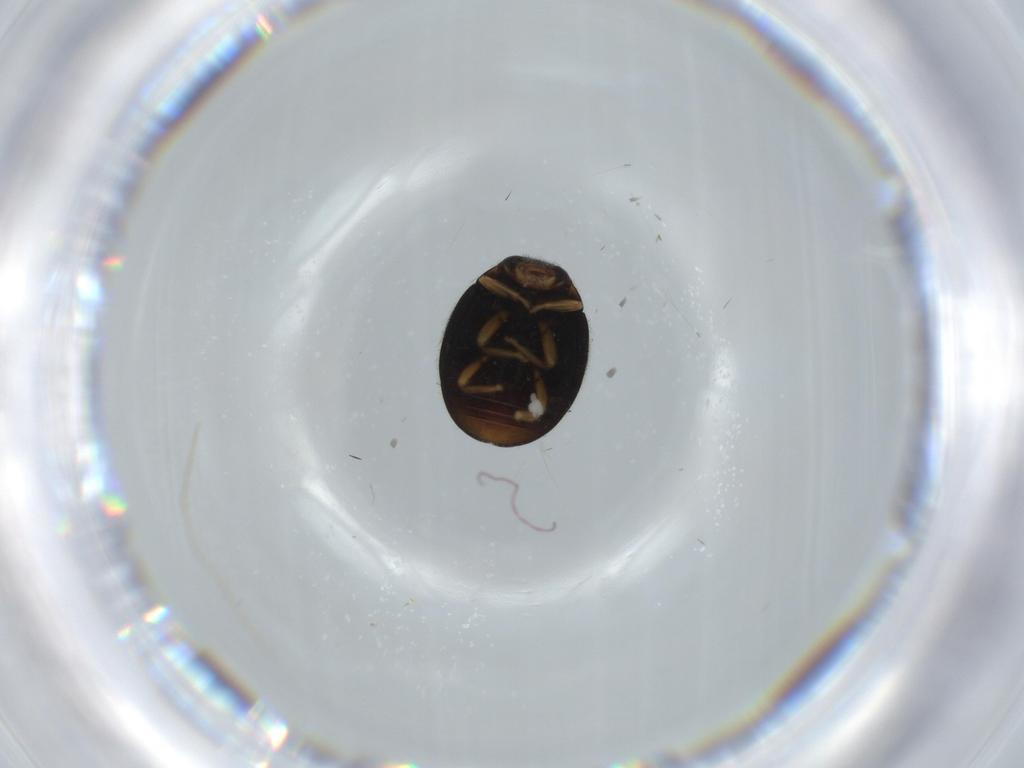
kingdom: Animalia
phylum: Arthropoda
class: Insecta
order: Coleoptera
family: Coccinellidae
